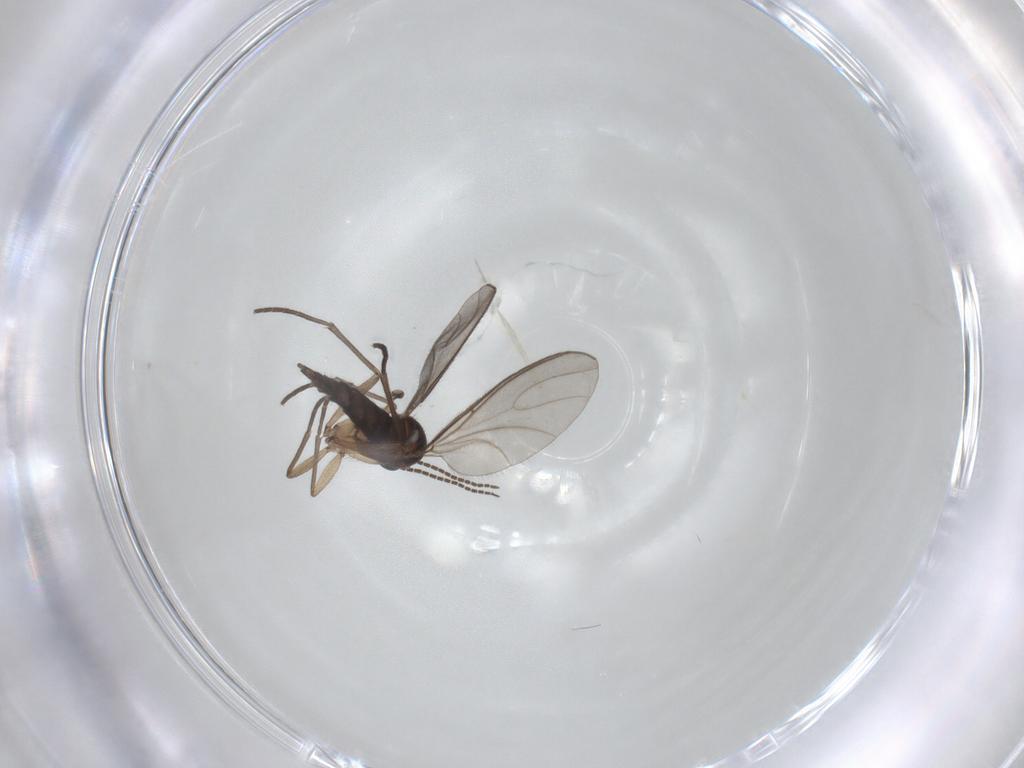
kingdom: Animalia
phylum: Arthropoda
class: Insecta
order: Diptera
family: Sciaridae
